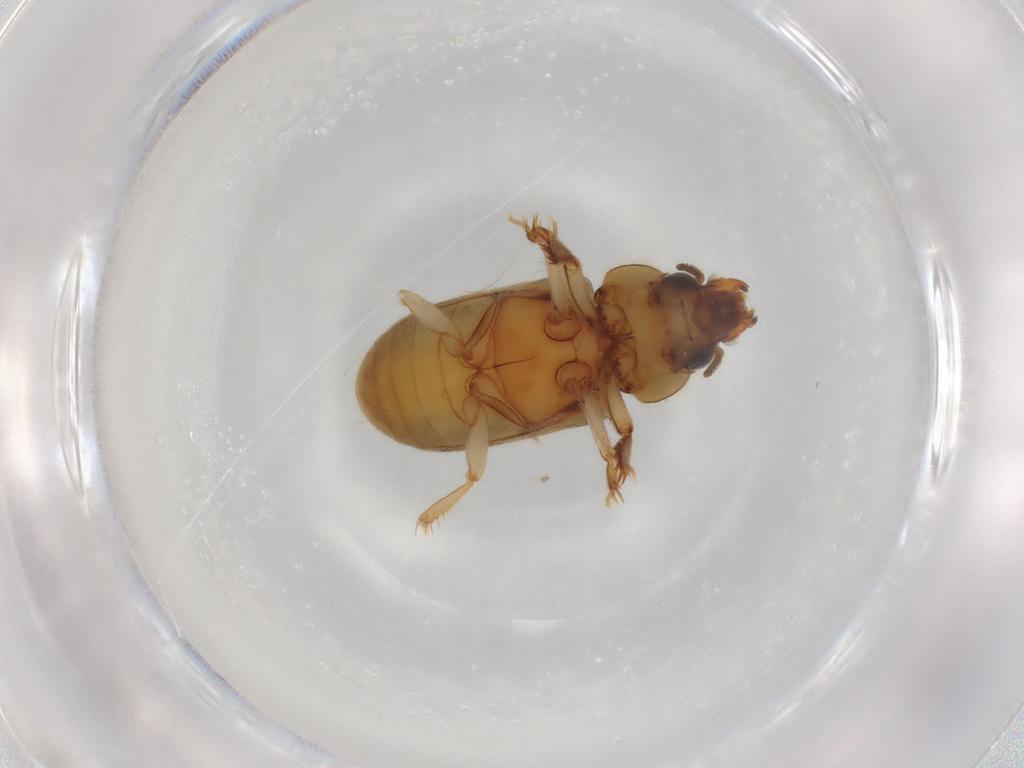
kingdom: Animalia
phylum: Arthropoda
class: Insecta
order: Coleoptera
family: Heteroceridae
